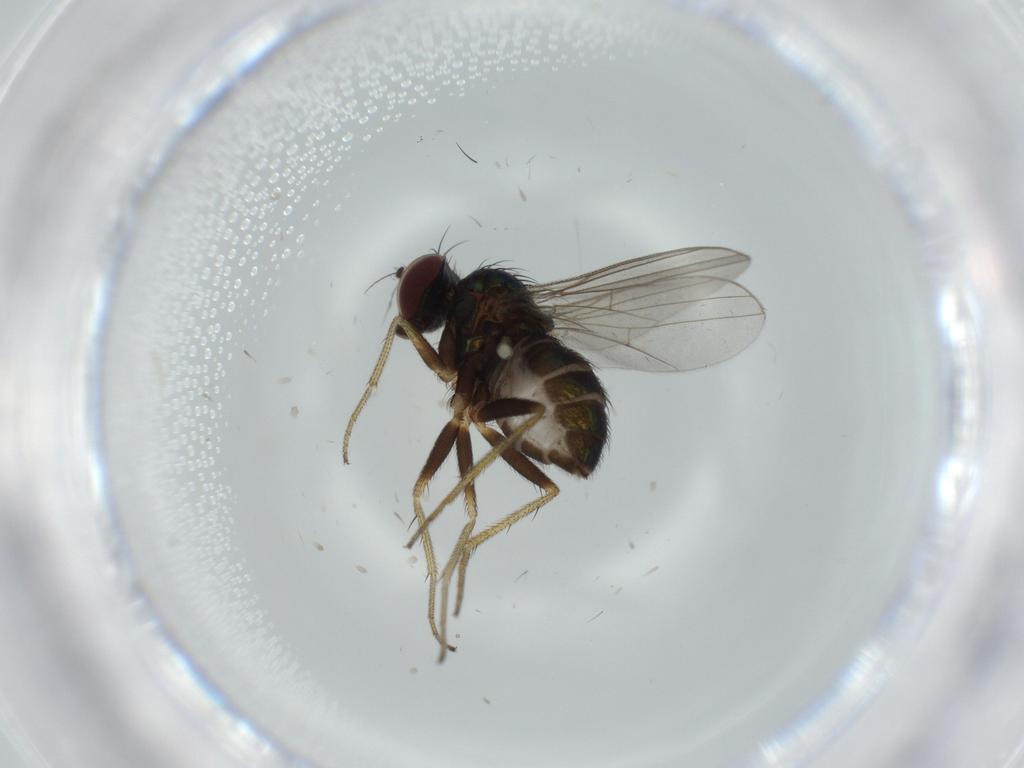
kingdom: Animalia
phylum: Arthropoda
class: Insecta
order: Diptera
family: Dolichopodidae
